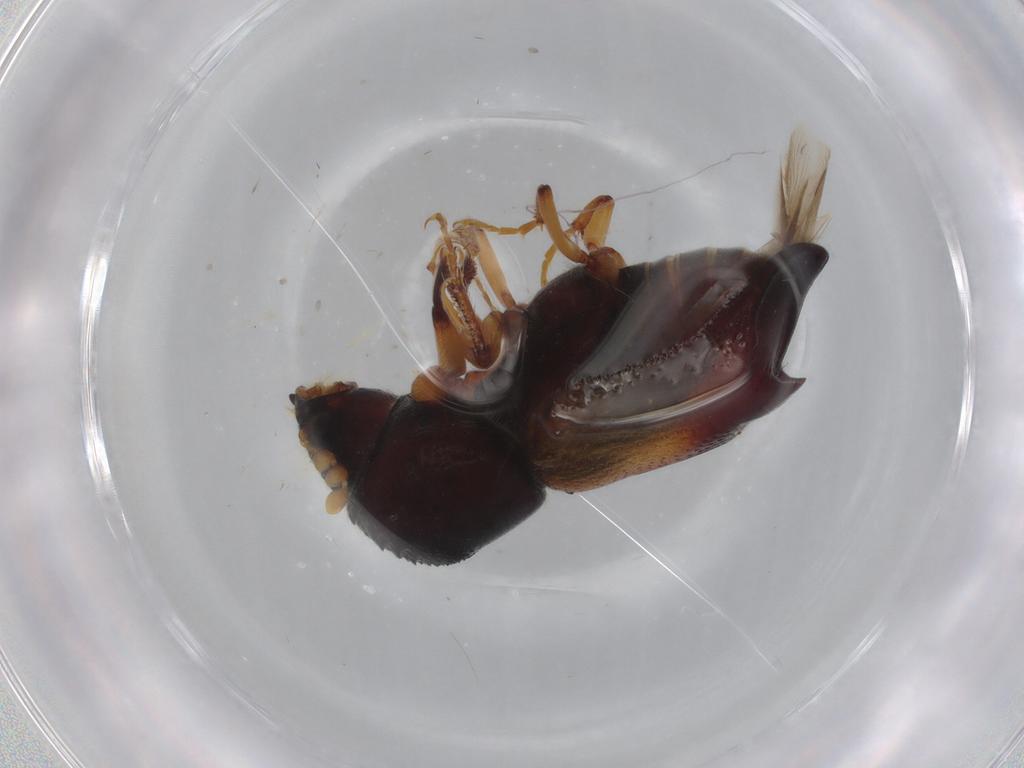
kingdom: Animalia
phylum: Arthropoda
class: Insecta
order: Coleoptera
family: Bostrichidae
